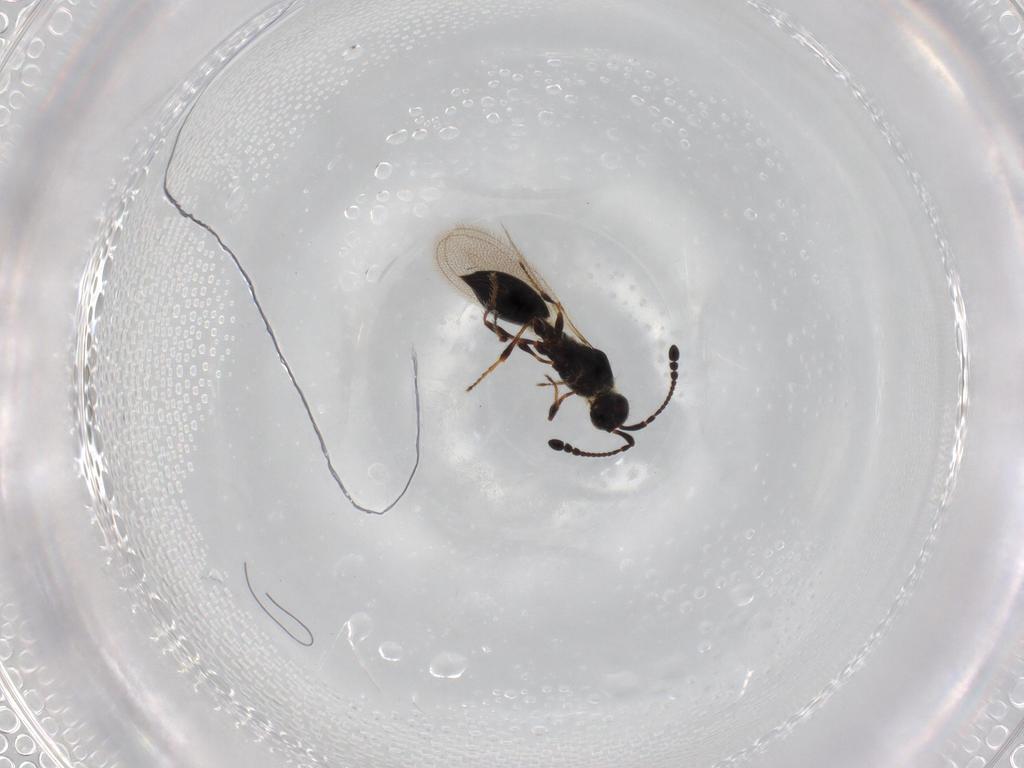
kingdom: Animalia
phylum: Arthropoda
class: Insecta
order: Hymenoptera
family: Diapriidae
